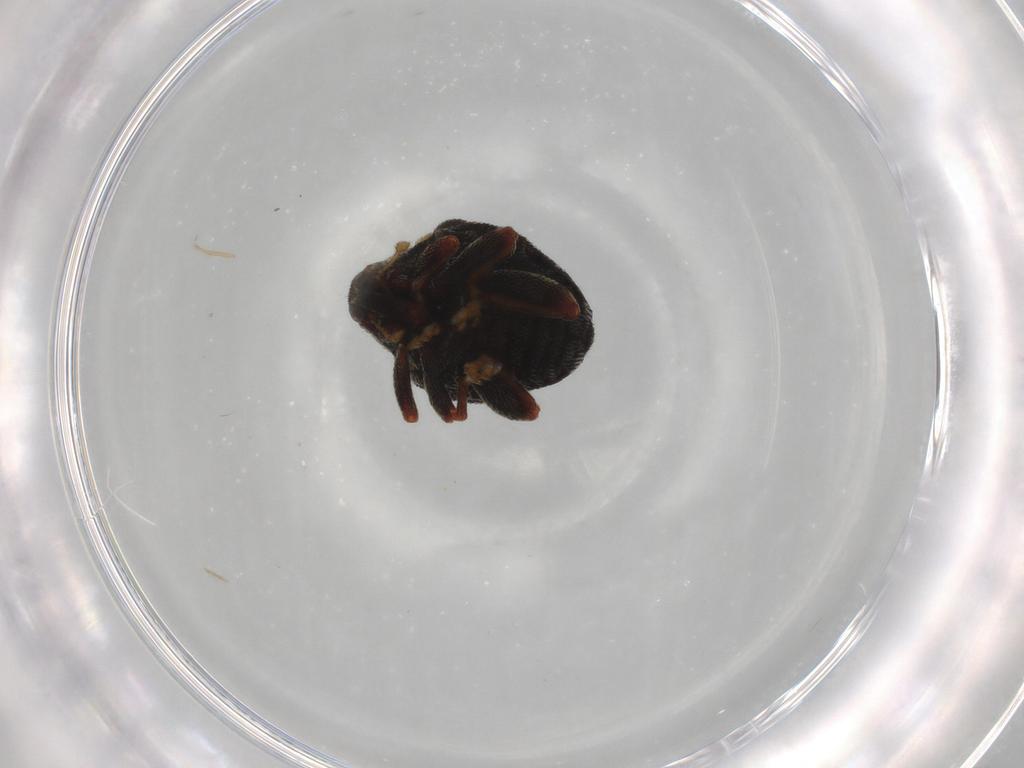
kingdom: Animalia
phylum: Arthropoda
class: Insecta
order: Coleoptera
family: Curculionidae
